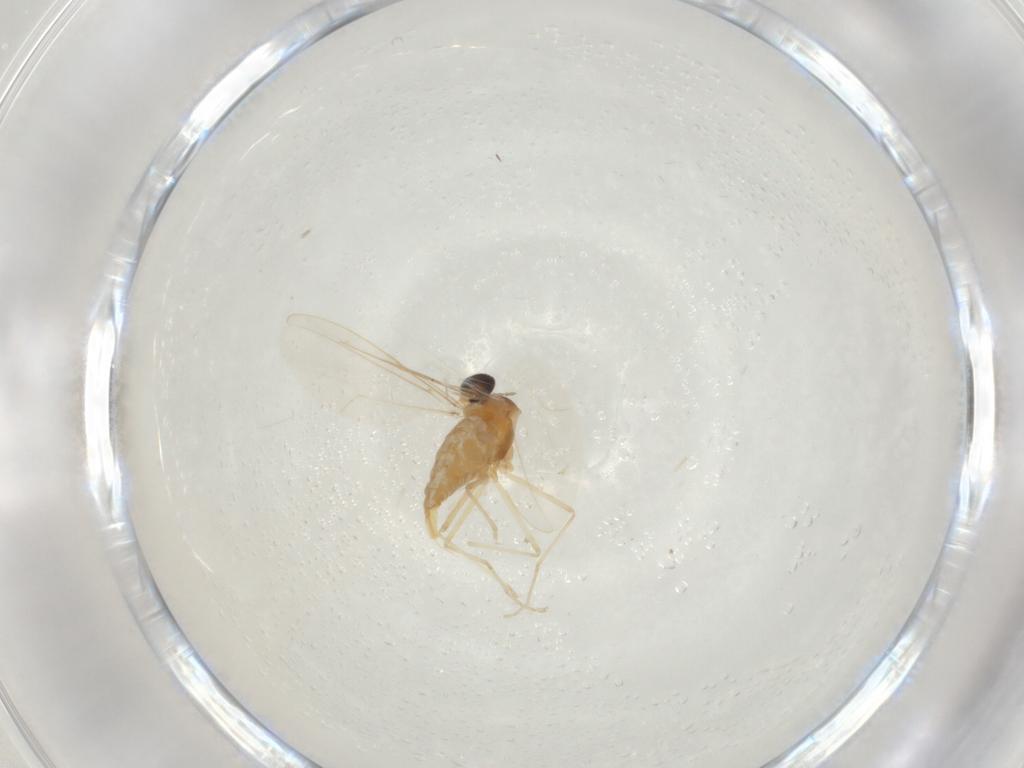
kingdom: Animalia
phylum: Arthropoda
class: Insecta
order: Diptera
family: Cecidomyiidae
